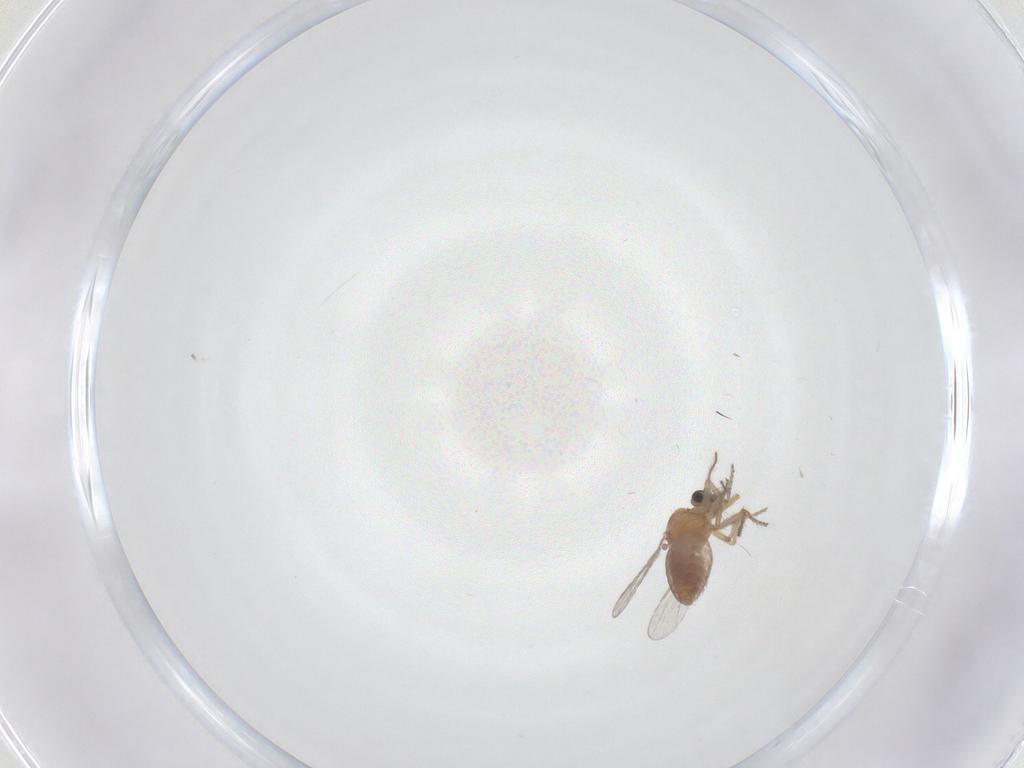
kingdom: Animalia
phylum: Arthropoda
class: Insecta
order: Diptera
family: Ceratopogonidae
